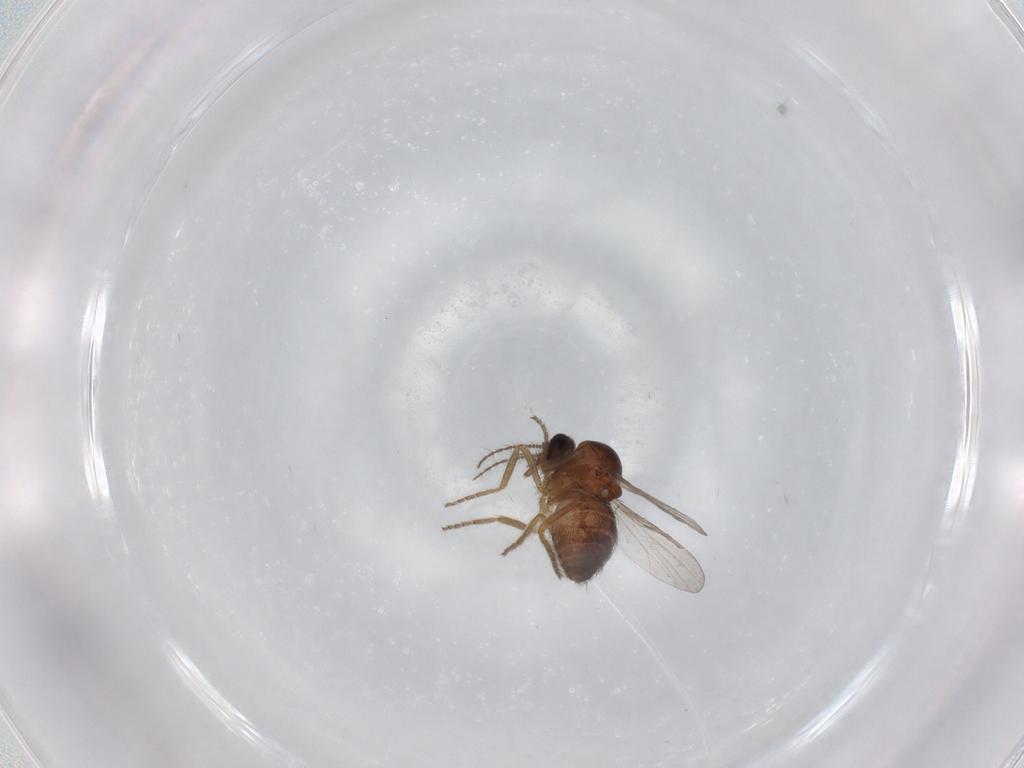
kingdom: Animalia
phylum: Arthropoda
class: Insecta
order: Diptera
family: Ceratopogonidae
